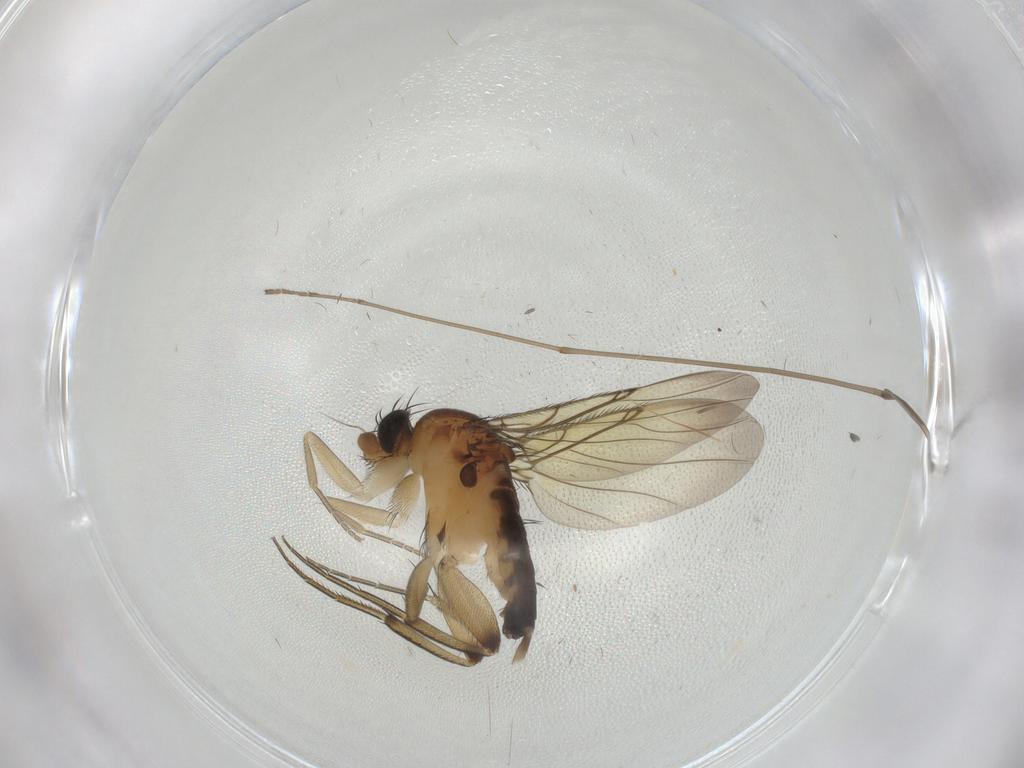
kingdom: Animalia
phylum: Arthropoda
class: Insecta
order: Diptera
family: Phoridae
